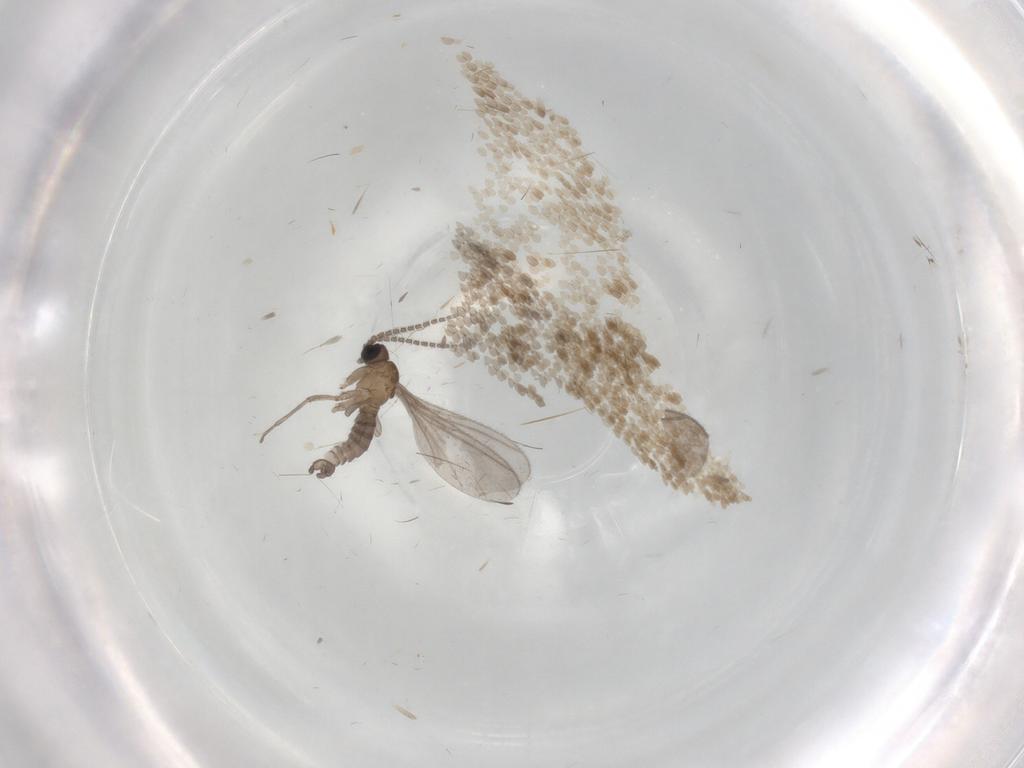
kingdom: Animalia
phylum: Arthropoda
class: Insecta
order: Diptera
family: Sciaridae
